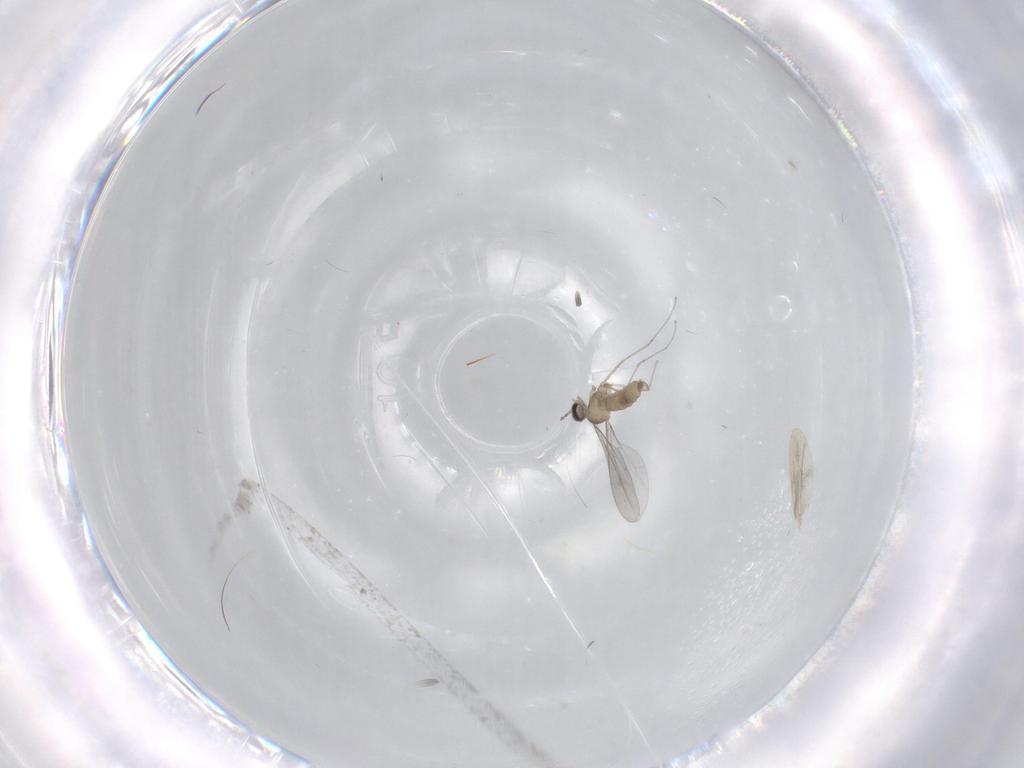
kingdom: Animalia
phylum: Arthropoda
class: Insecta
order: Diptera
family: Cecidomyiidae
